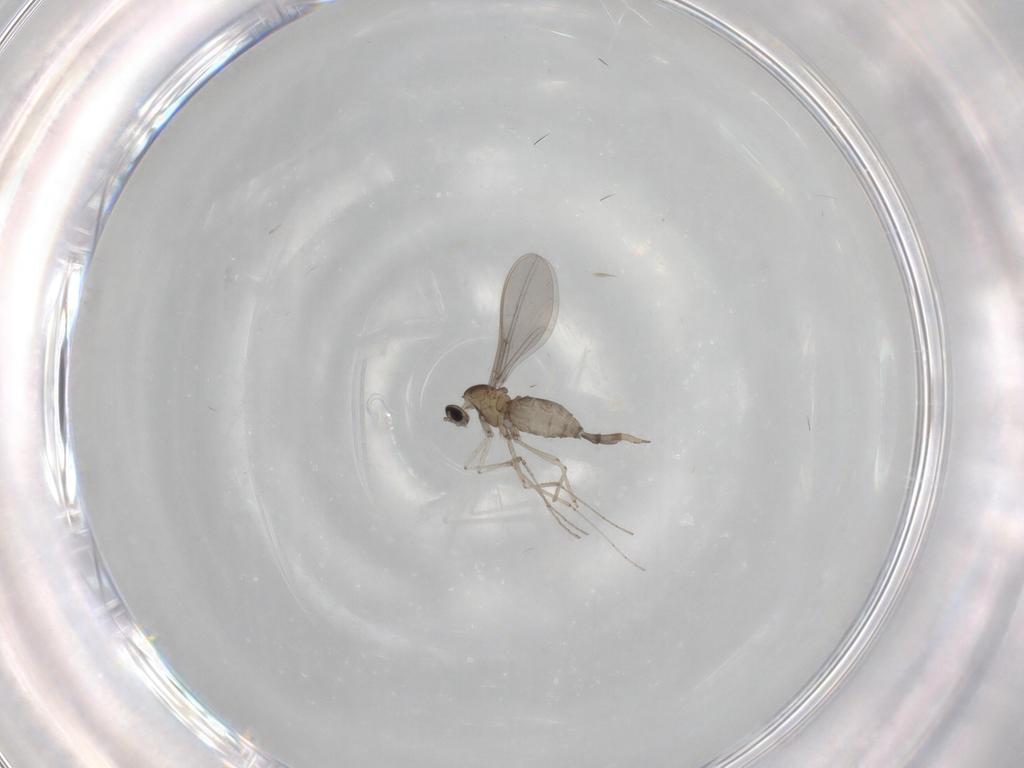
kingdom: Animalia
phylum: Arthropoda
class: Insecta
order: Diptera
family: Cecidomyiidae
